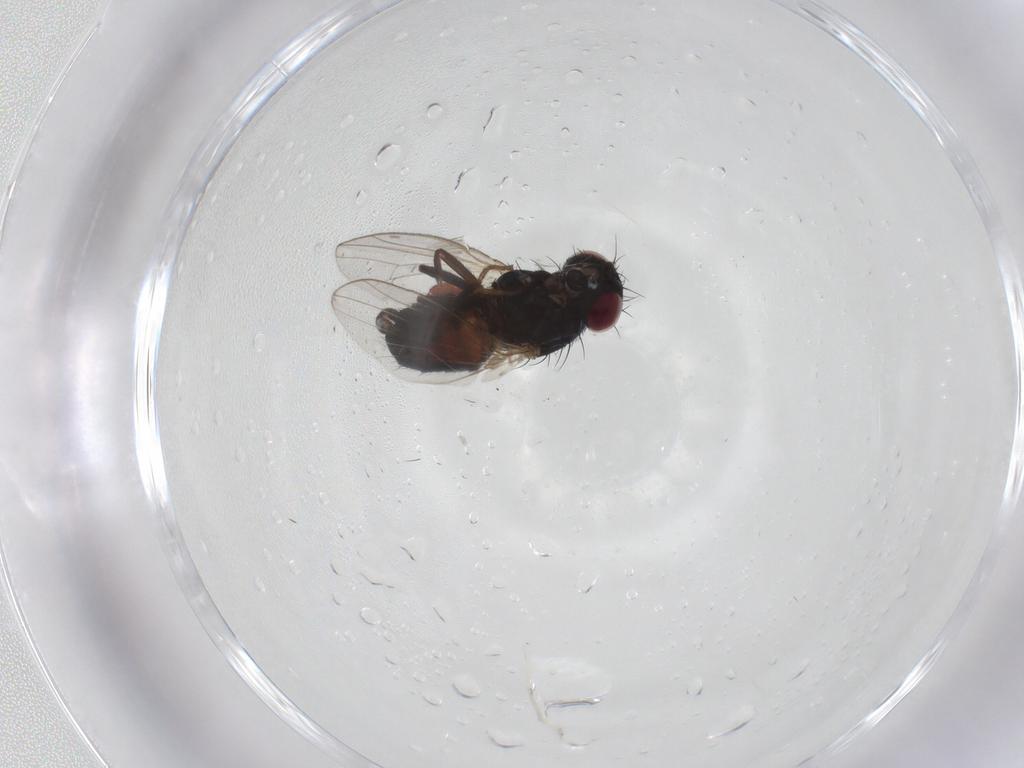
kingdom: Animalia
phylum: Arthropoda
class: Insecta
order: Diptera
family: Carnidae
